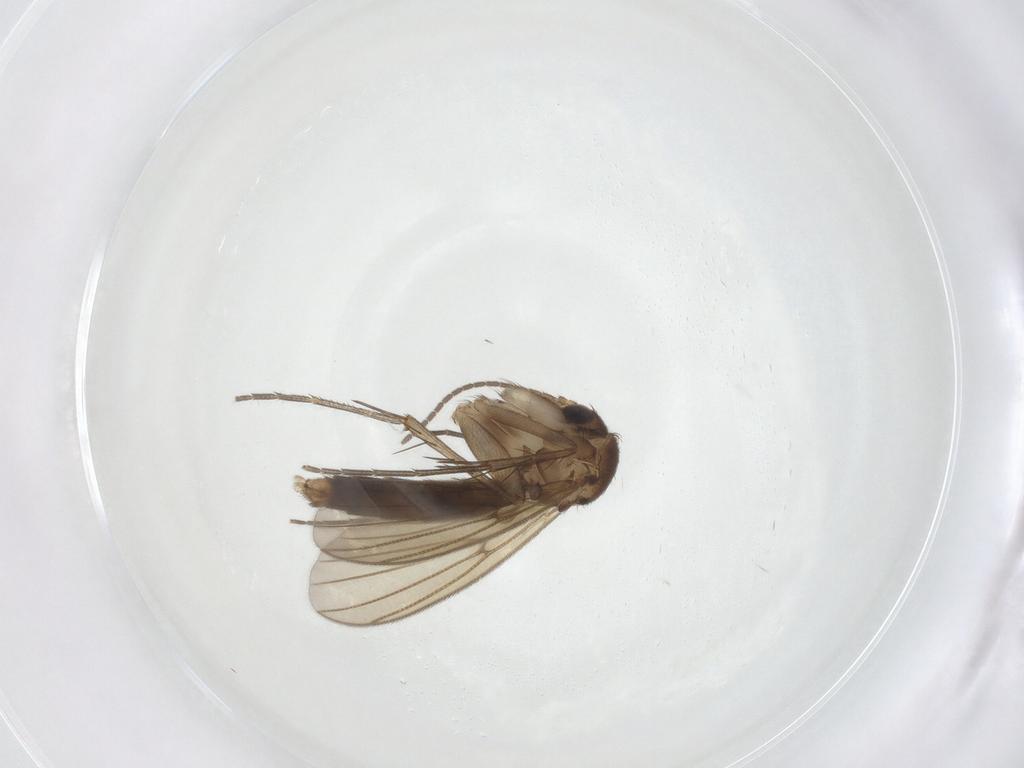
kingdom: Animalia
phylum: Arthropoda
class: Insecta
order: Diptera
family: Mycetophilidae
